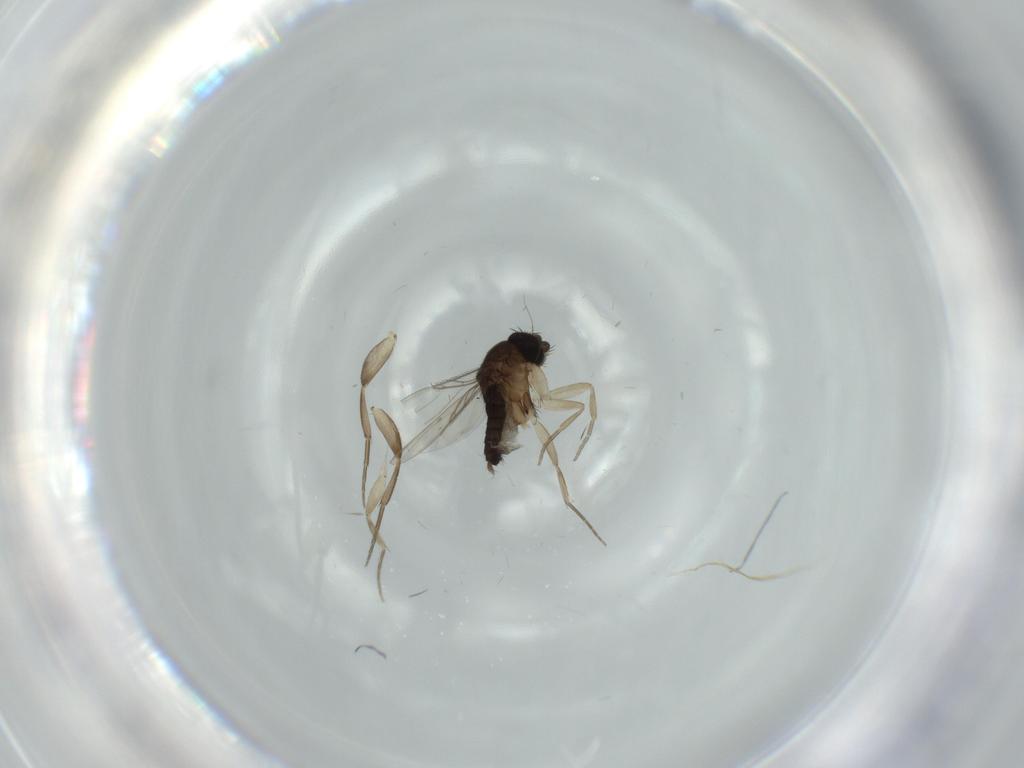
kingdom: Animalia
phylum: Arthropoda
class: Insecta
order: Diptera
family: Phoridae
